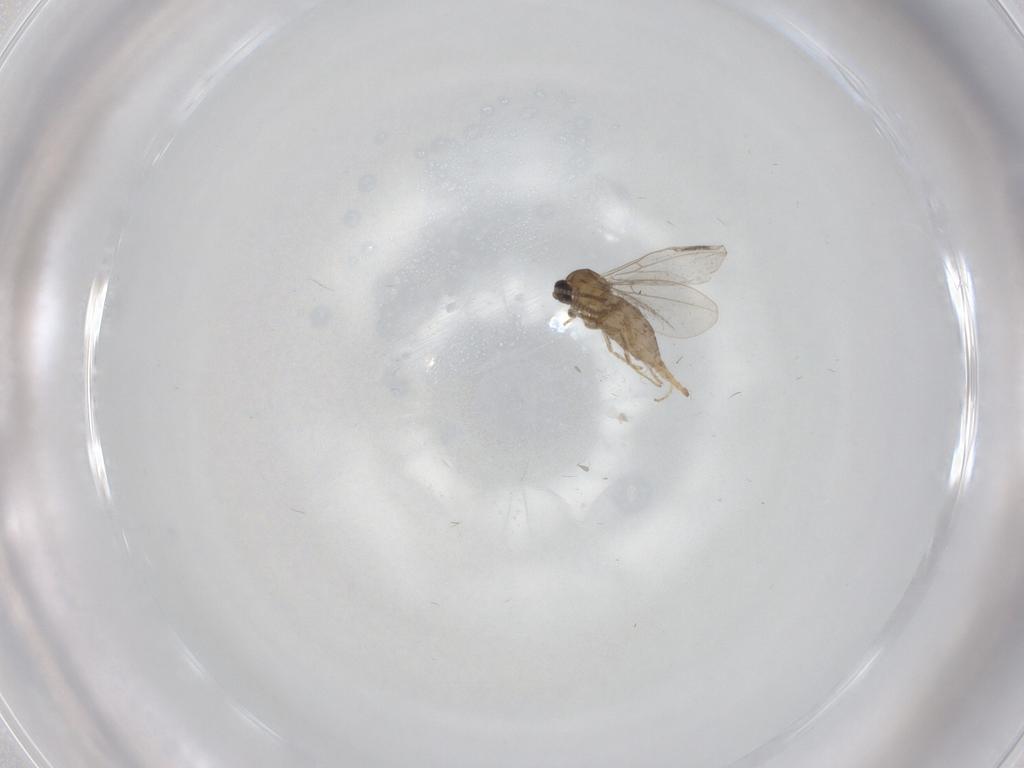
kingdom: Animalia
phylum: Arthropoda
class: Insecta
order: Diptera
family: Cecidomyiidae
